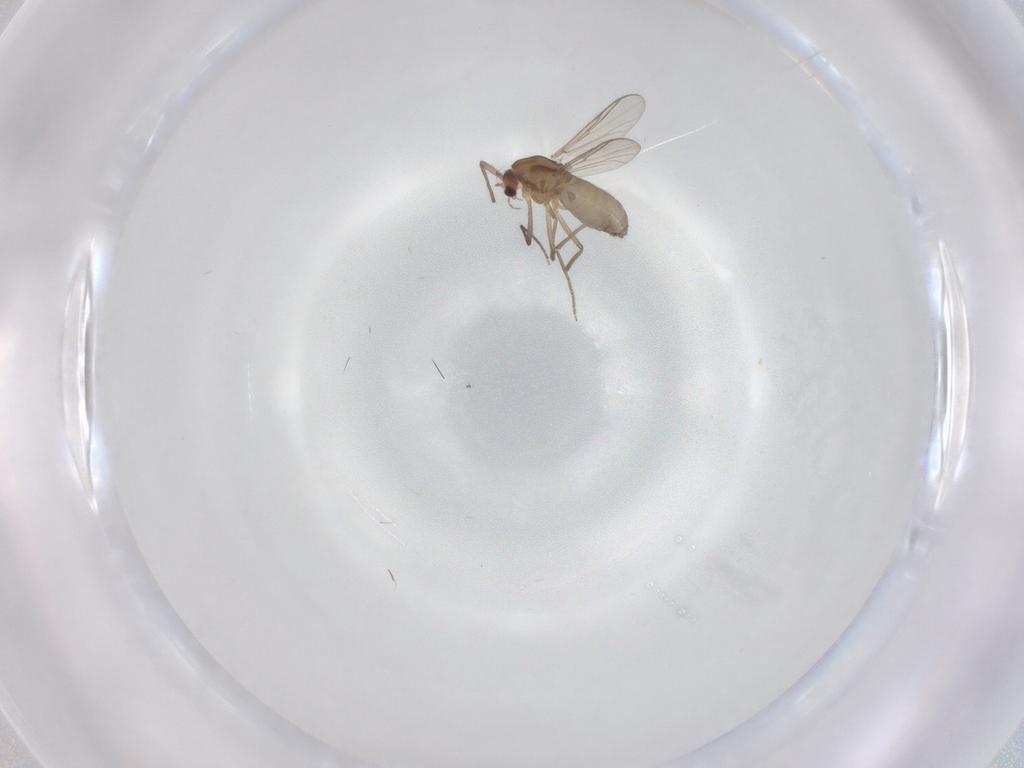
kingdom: Animalia
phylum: Arthropoda
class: Insecta
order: Diptera
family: Chironomidae
